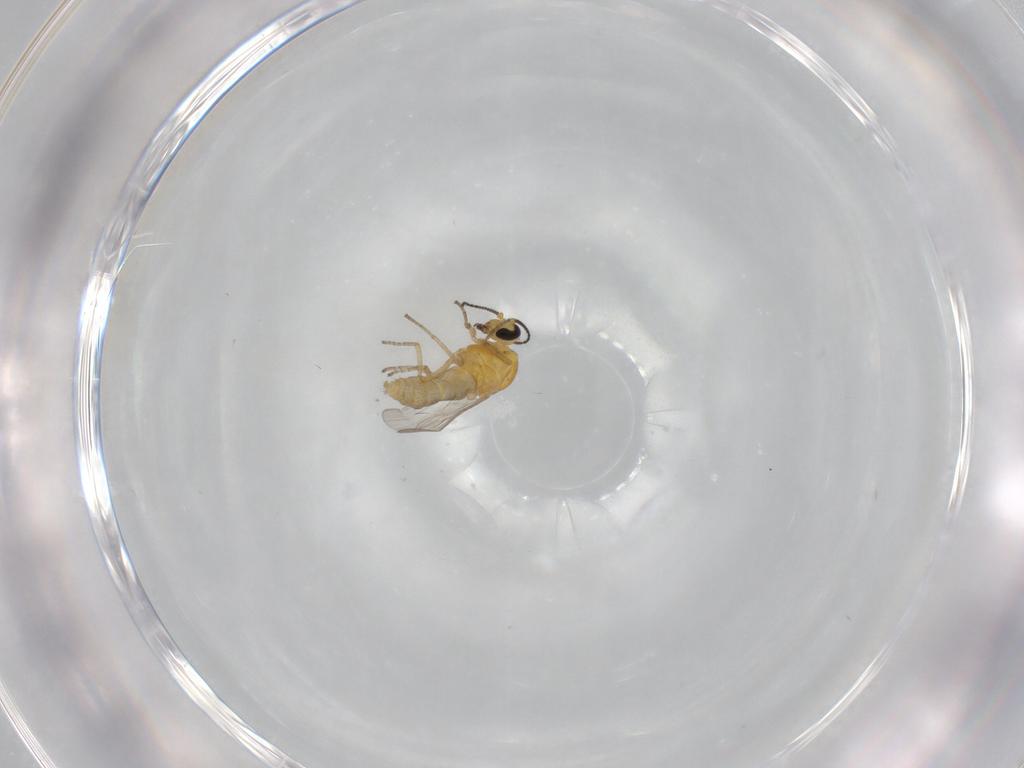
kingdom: Animalia
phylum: Arthropoda
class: Insecta
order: Diptera
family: Ceratopogonidae
